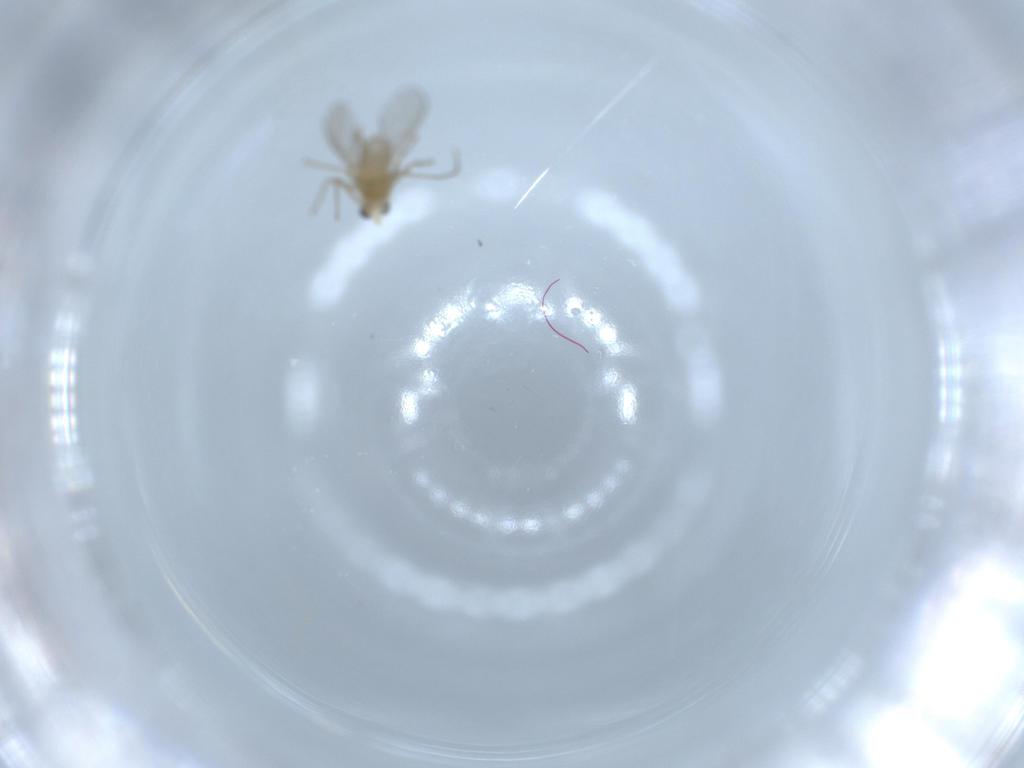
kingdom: Animalia
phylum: Arthropoda
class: Insecta
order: Diptera
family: Chironomidae
